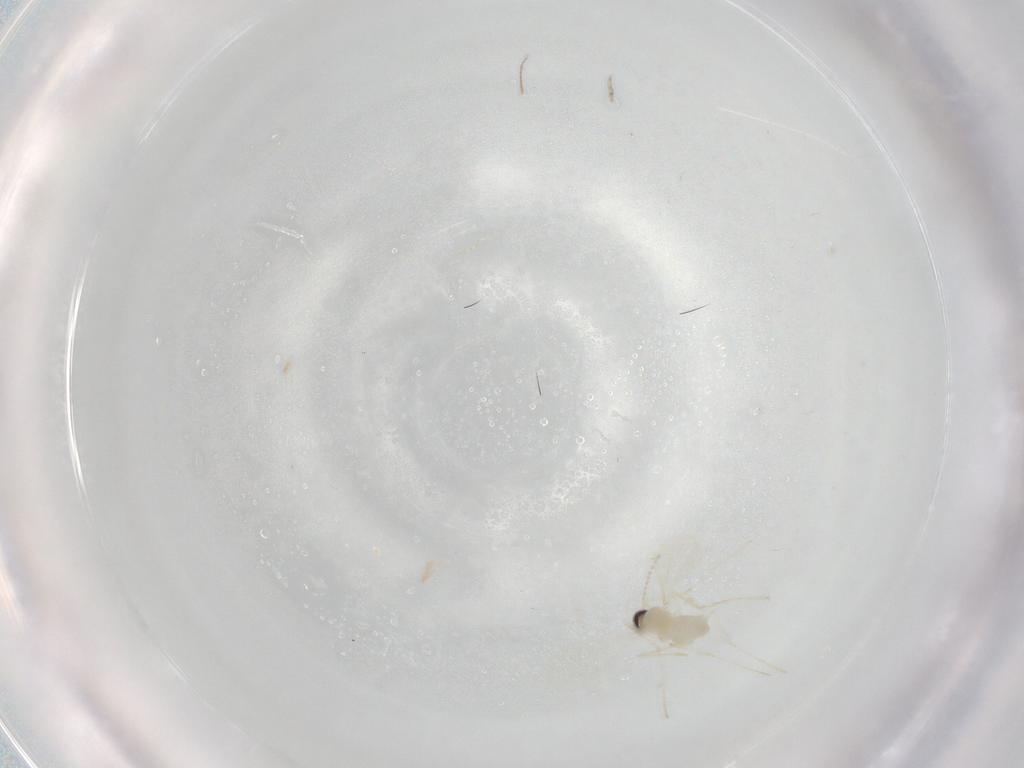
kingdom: Animalia
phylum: Arthropoda
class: Insecta
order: Diptera
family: Cecidomyiidae
